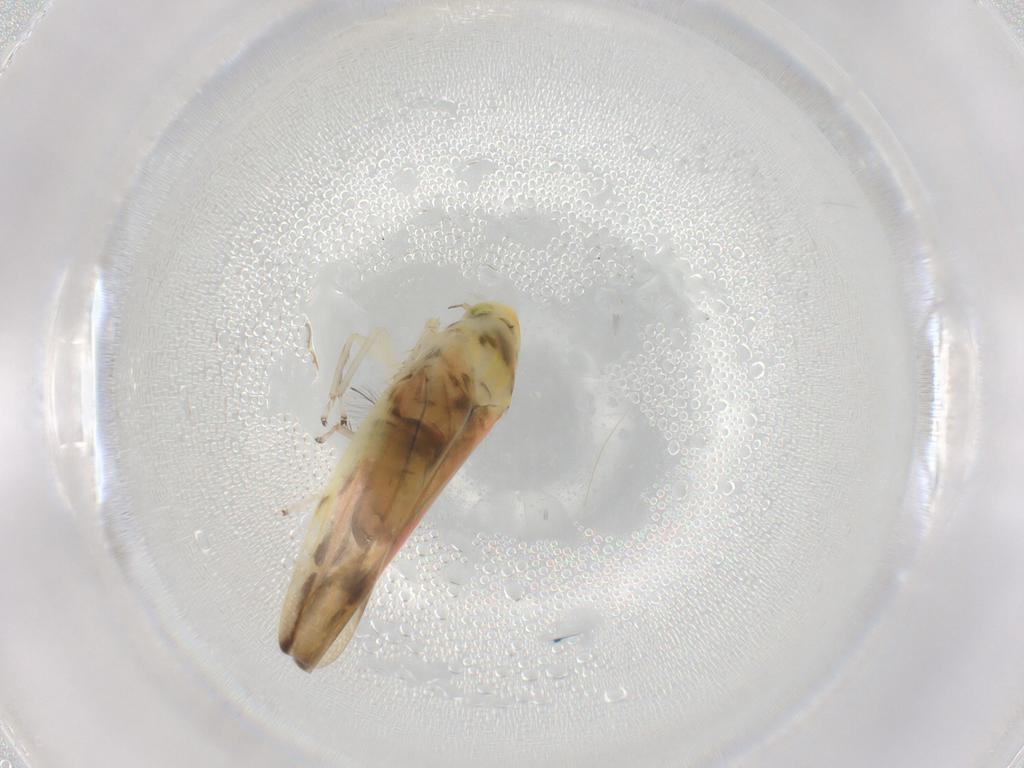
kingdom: Animalia
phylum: Arthropoda
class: Insecta
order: Hemiptera
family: Cicadellidae
